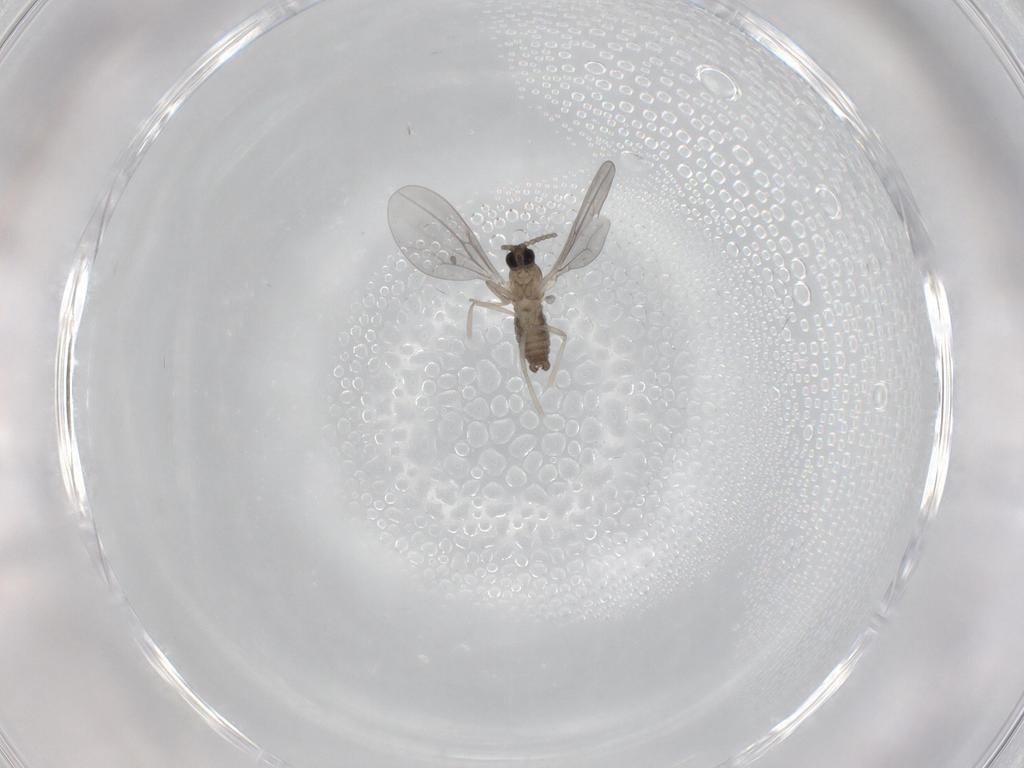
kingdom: Animalia
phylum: Arthropoda
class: Insecta
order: Diptera
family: Cecidomyiidae
